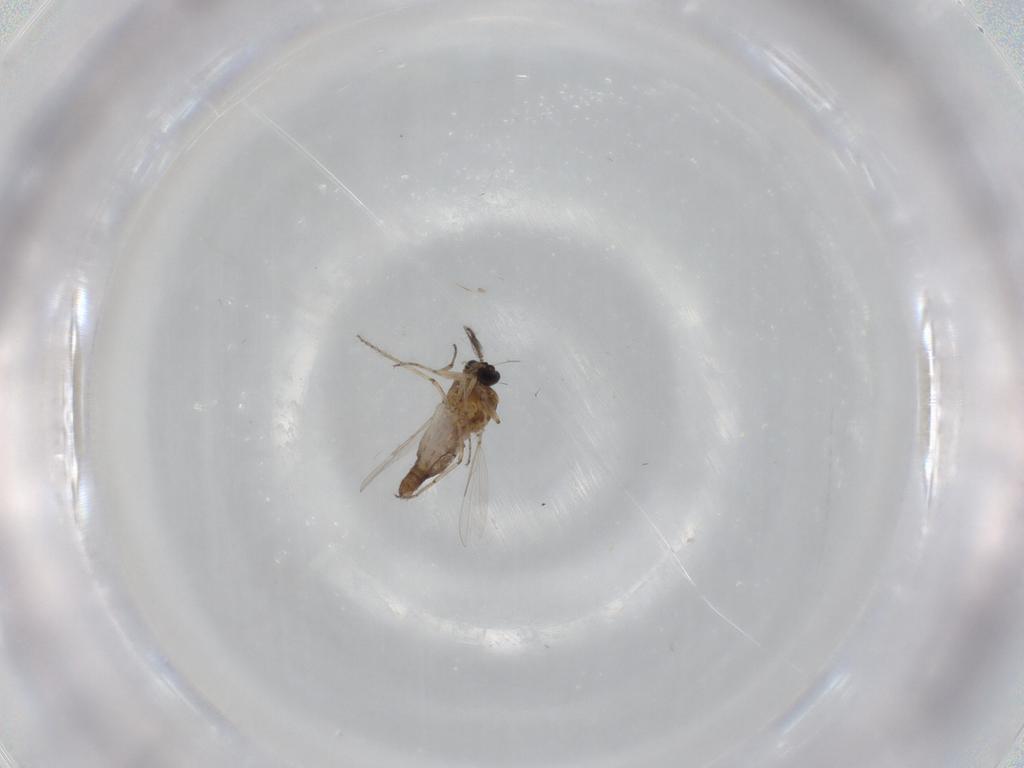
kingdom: Animalia
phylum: Arthropoda
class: Insecta
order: Diptera
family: Ceratopogonidae
